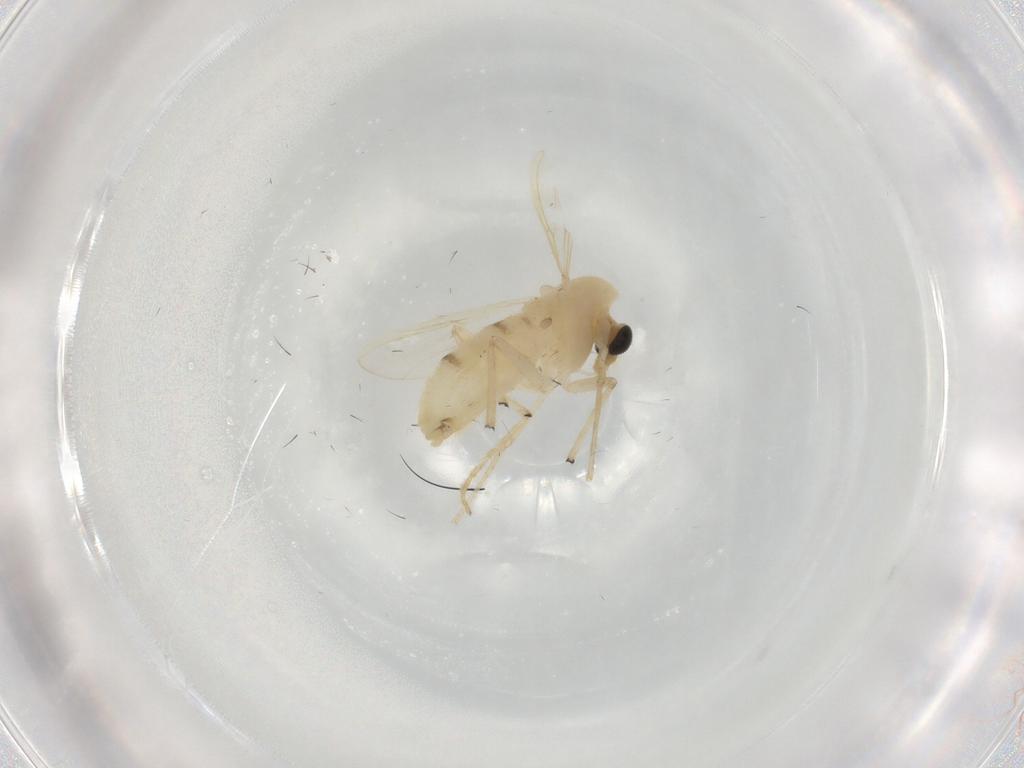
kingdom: Animalia
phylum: Arthropoda
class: Insecta
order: Diptera
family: Chironomidae
